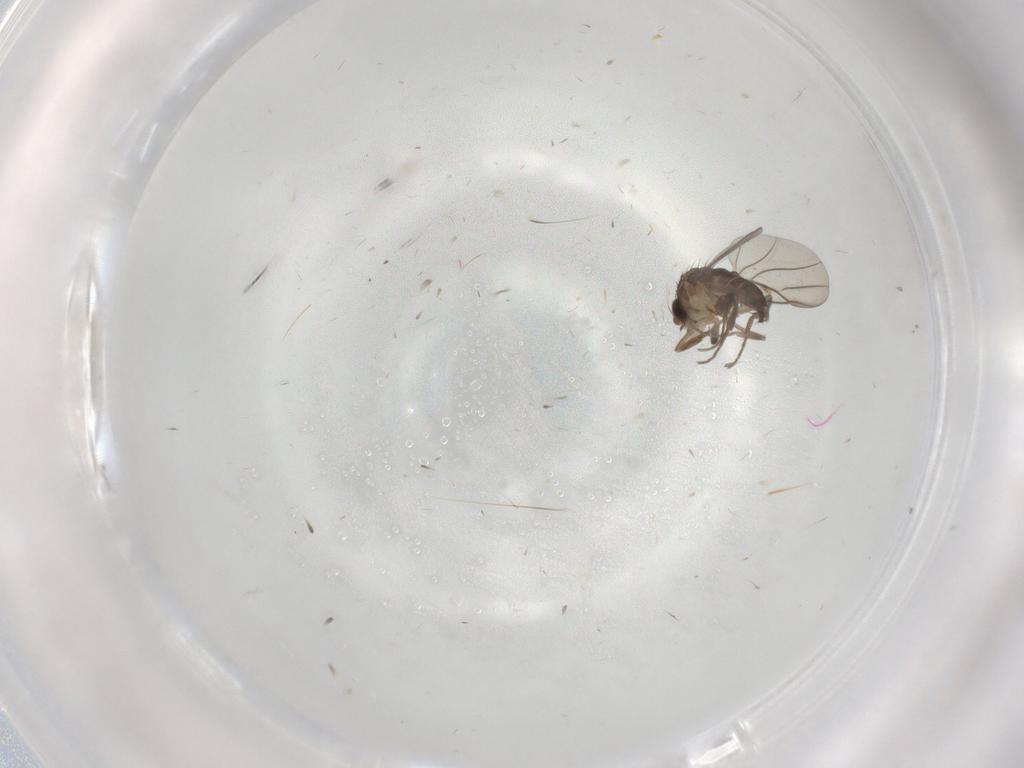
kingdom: Animalia
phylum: Arthropoda
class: Insecta
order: Diptera
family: Phoridae
